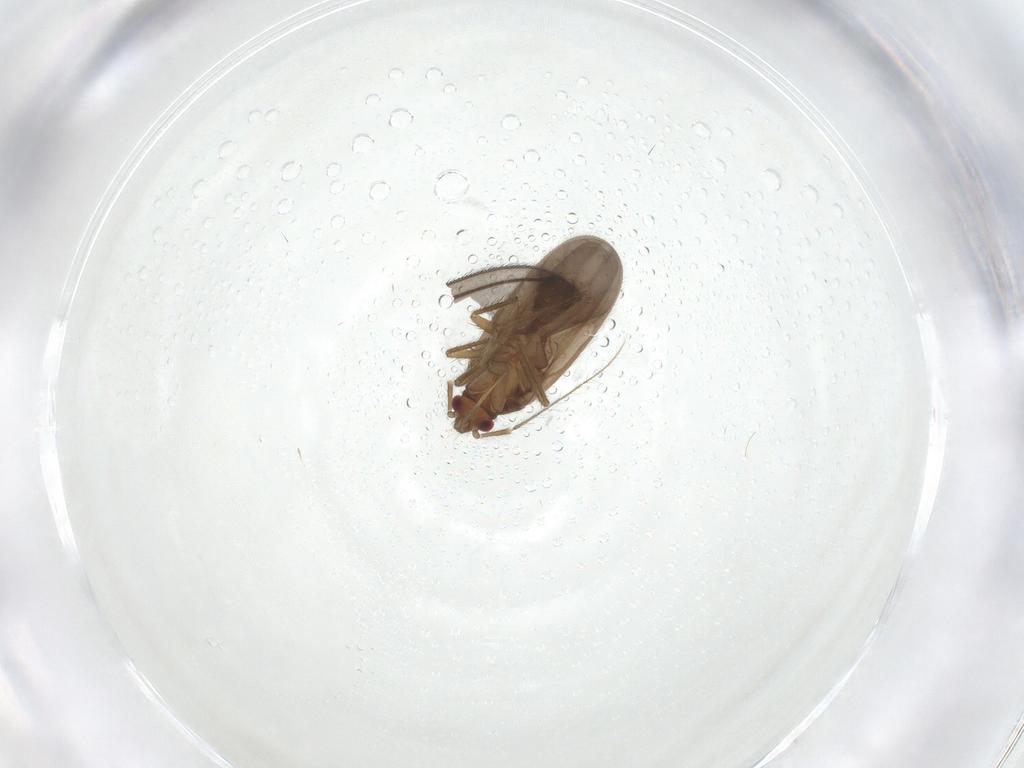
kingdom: Animalia
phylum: Arthropoda
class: Insecta
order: Hemiptera
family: Ceratocombidae
